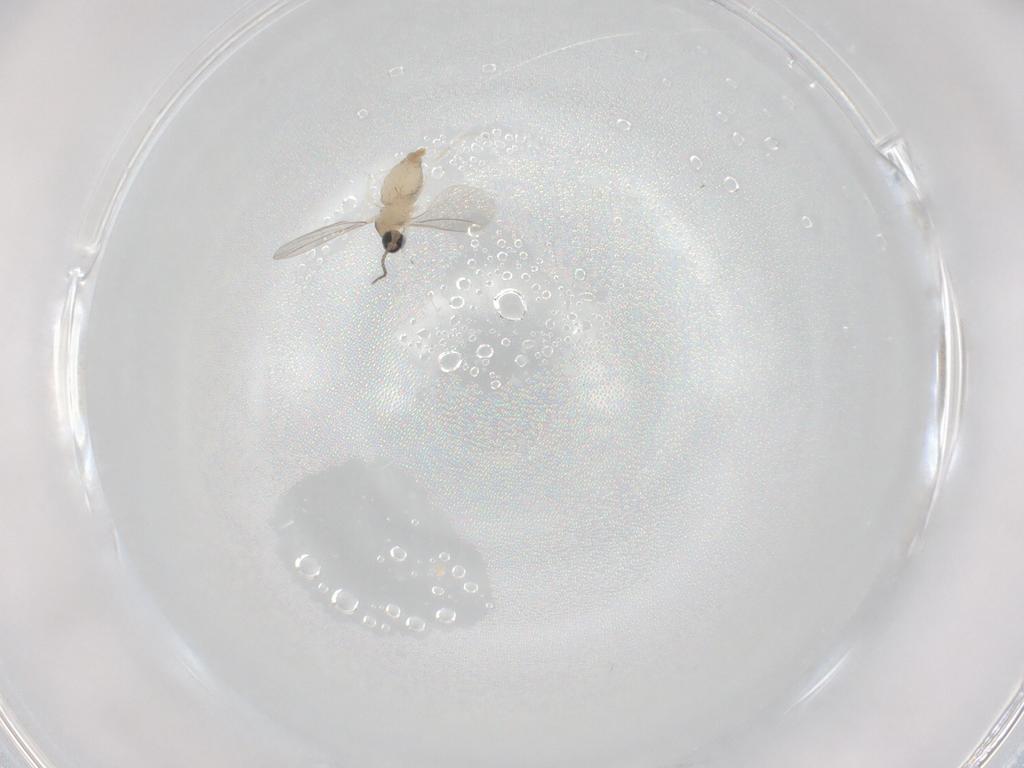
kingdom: Animalia
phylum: Arthropoda
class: Insecta
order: Diptera
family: Cecidomyiidae
